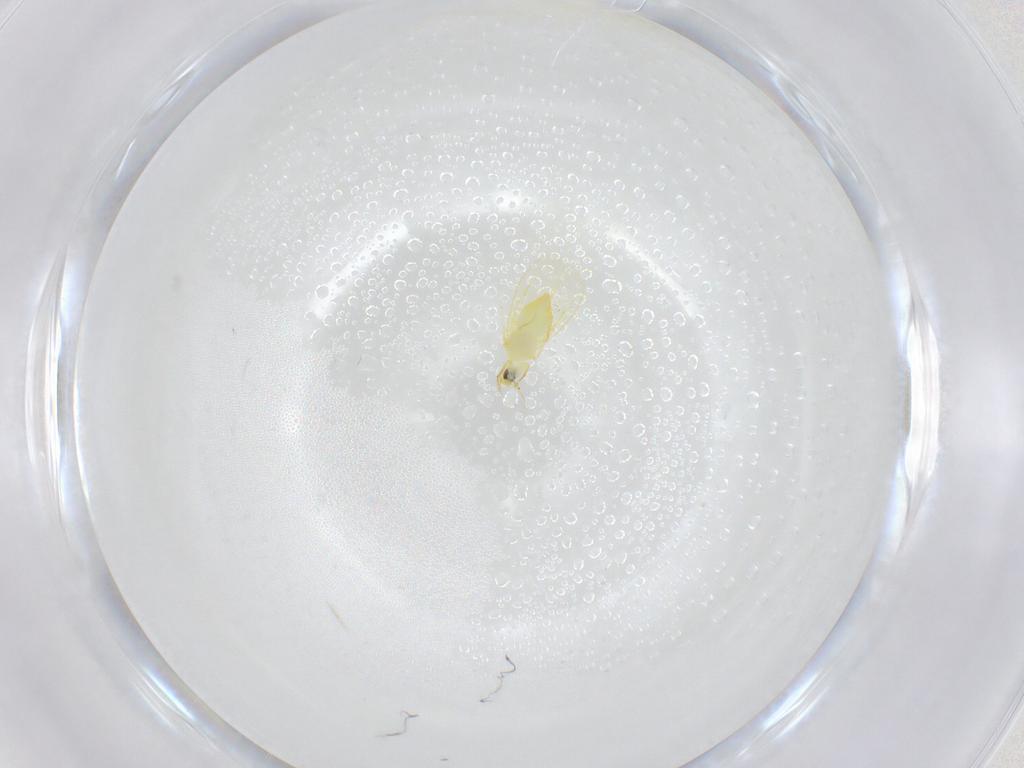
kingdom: Animalia
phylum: Arthropoda
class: Insecta
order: Hemiptera
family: Aleyrodidae
